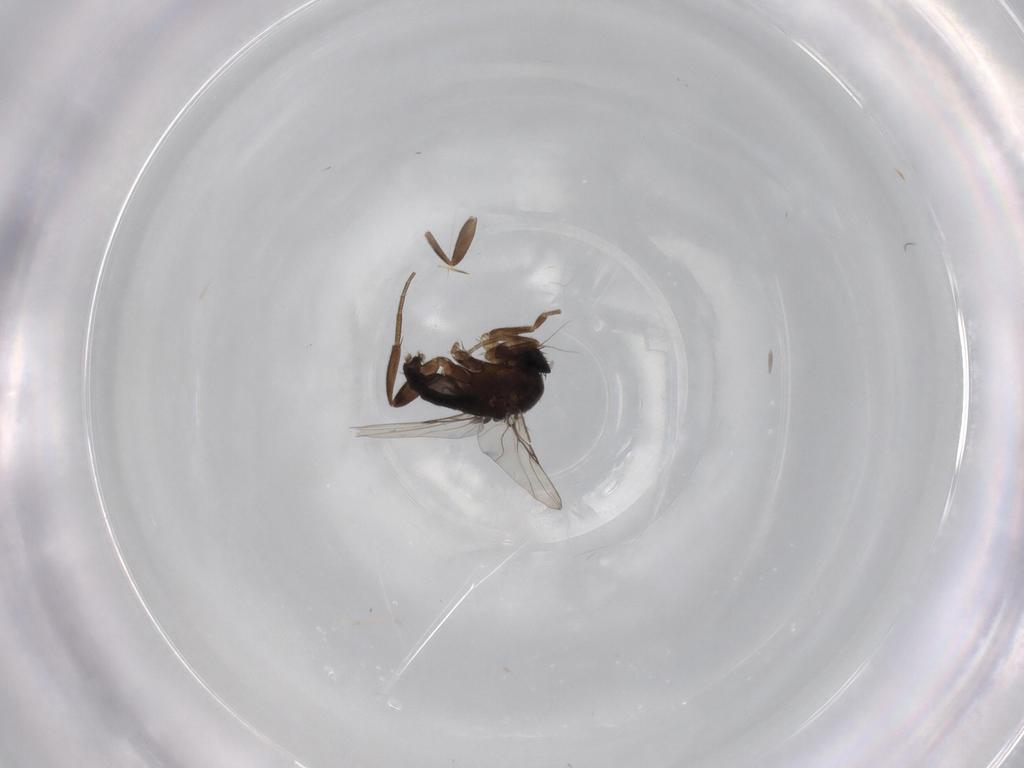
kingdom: Animalia
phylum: Arthropoda
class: Insecta
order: Diptera
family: Phoridae
